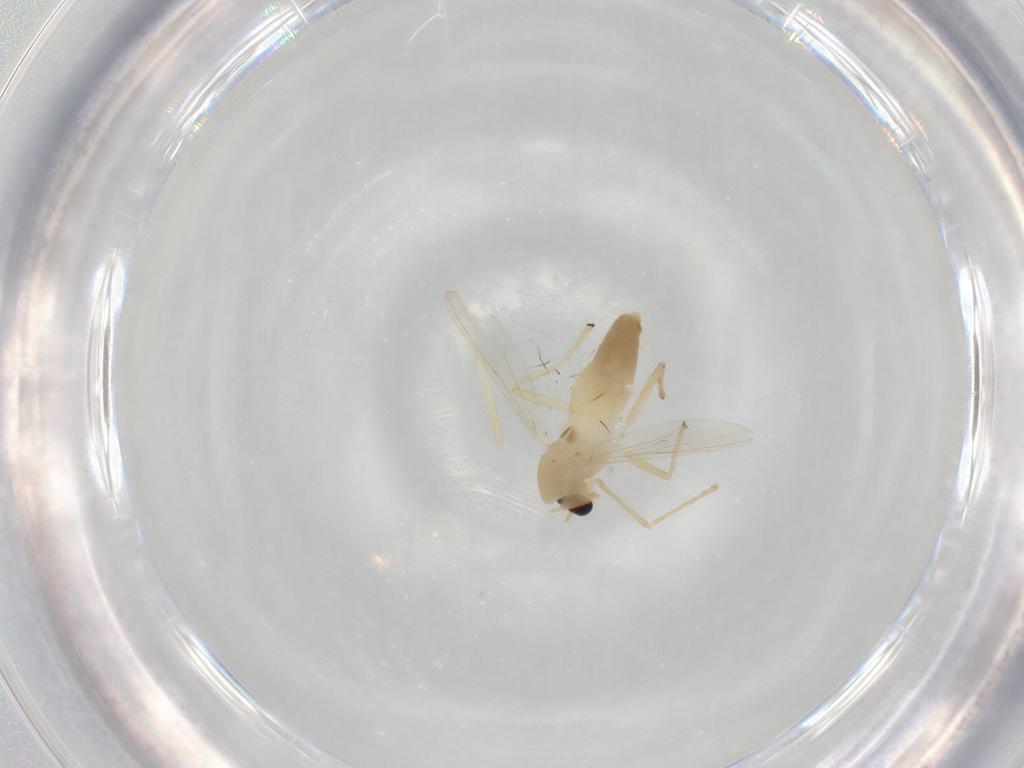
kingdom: Animalia
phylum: Arthropoda
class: Insecta
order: Diptera
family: Chironomidae
